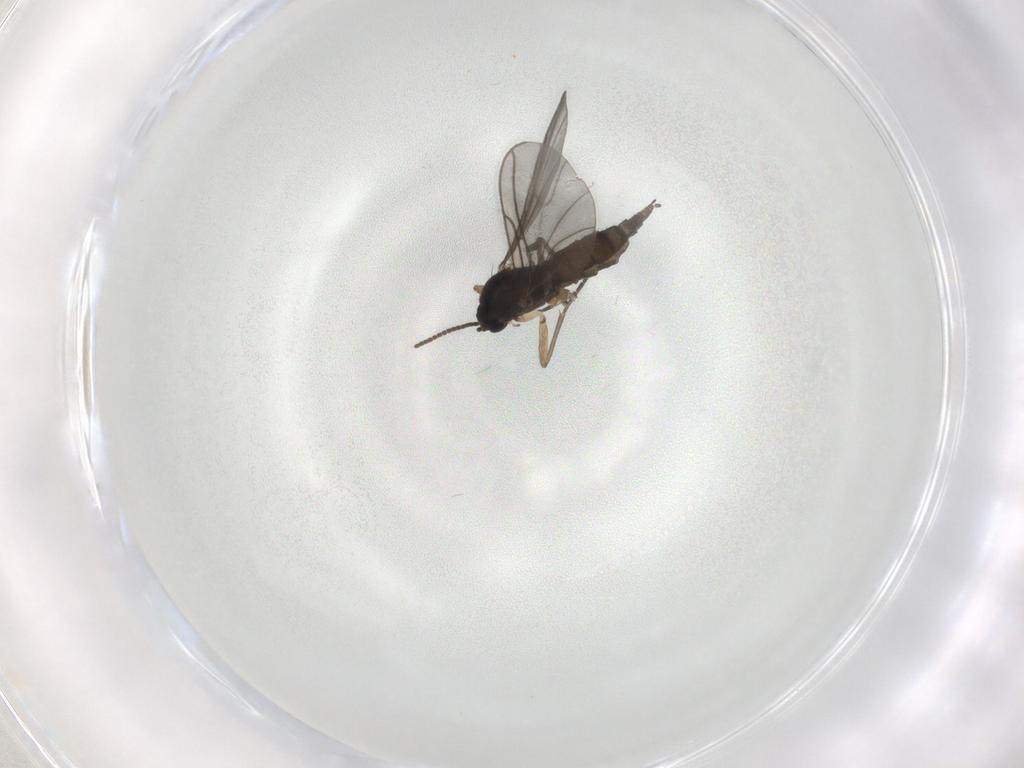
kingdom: Animalia
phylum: Arthropoda
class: Insecta
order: Diptera
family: Sciaridae
